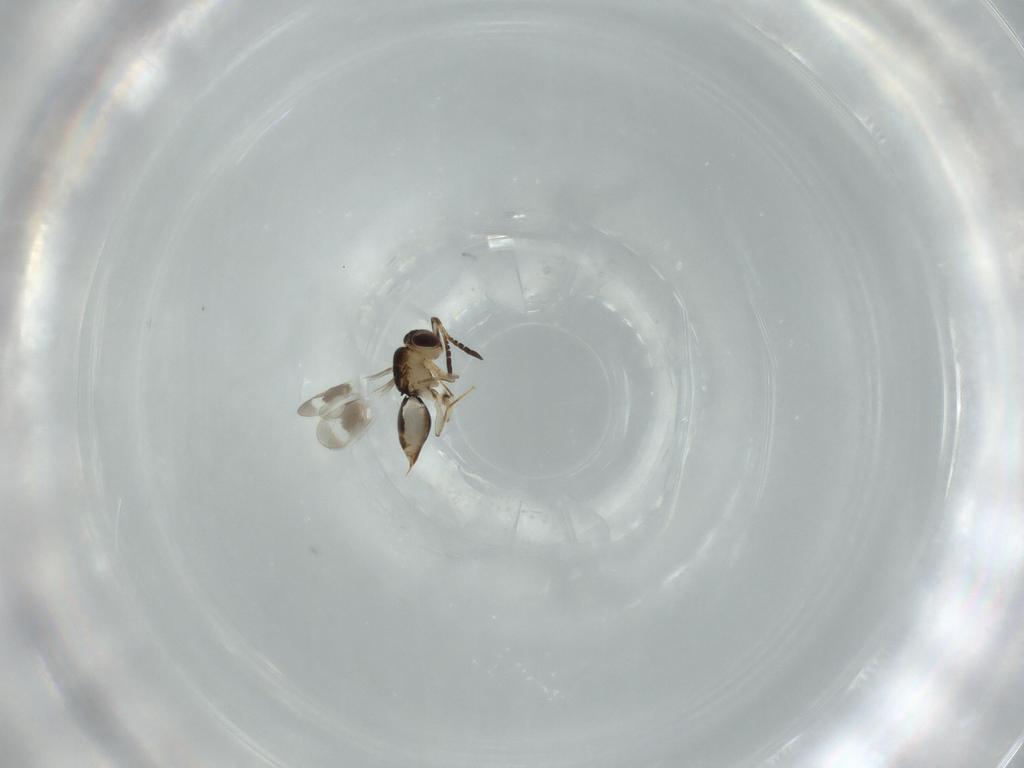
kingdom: Animalia
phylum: Arthropoda
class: Insecta
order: Hymenoptera
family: Ceraphronidae
